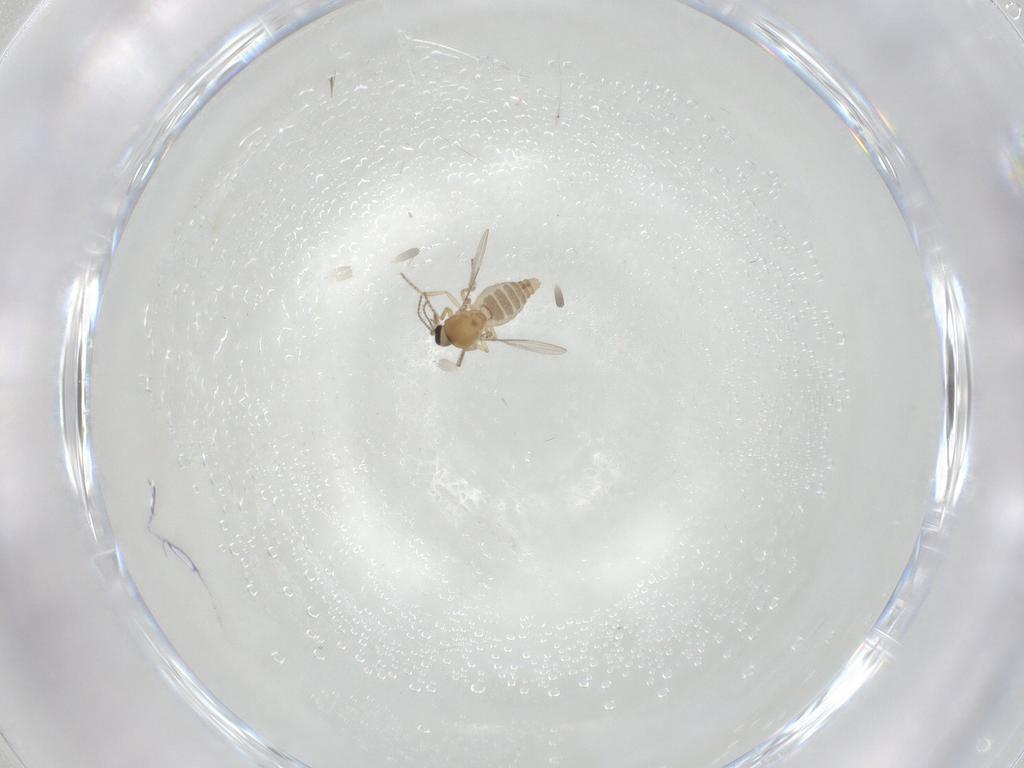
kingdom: Animalia
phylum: Arthropoda
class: Insecta
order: Diptera
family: Ceratopogonidae
